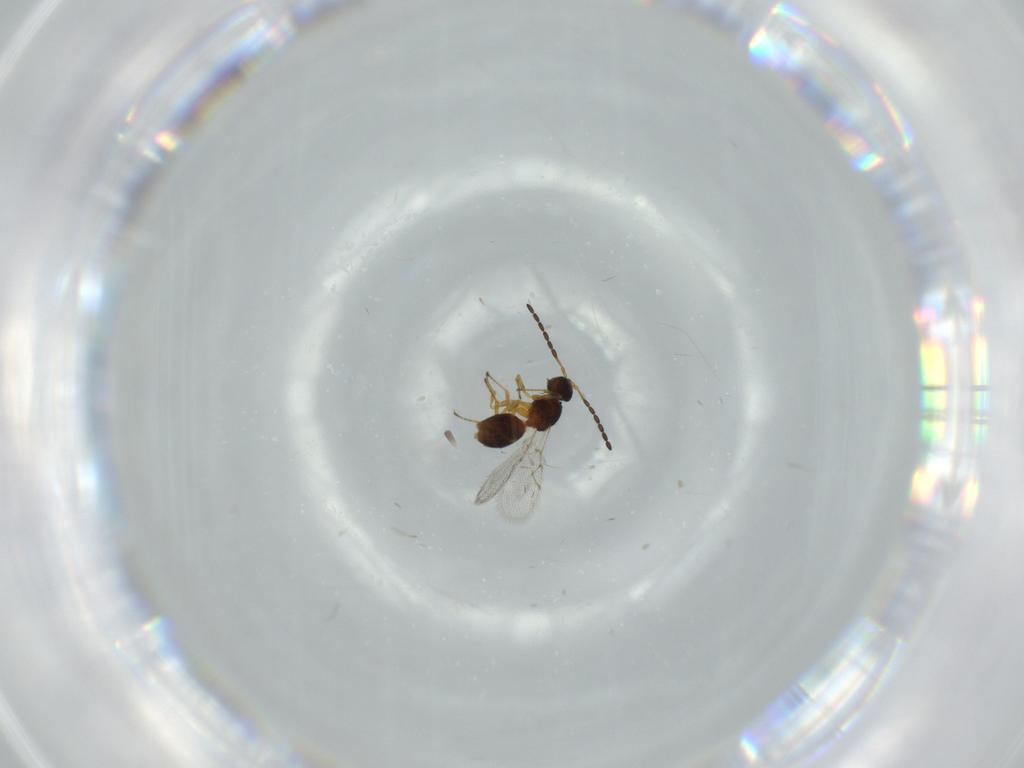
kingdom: Animalia
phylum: Arthropoda
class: Insecta
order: Hymenoptera
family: Figitidae
